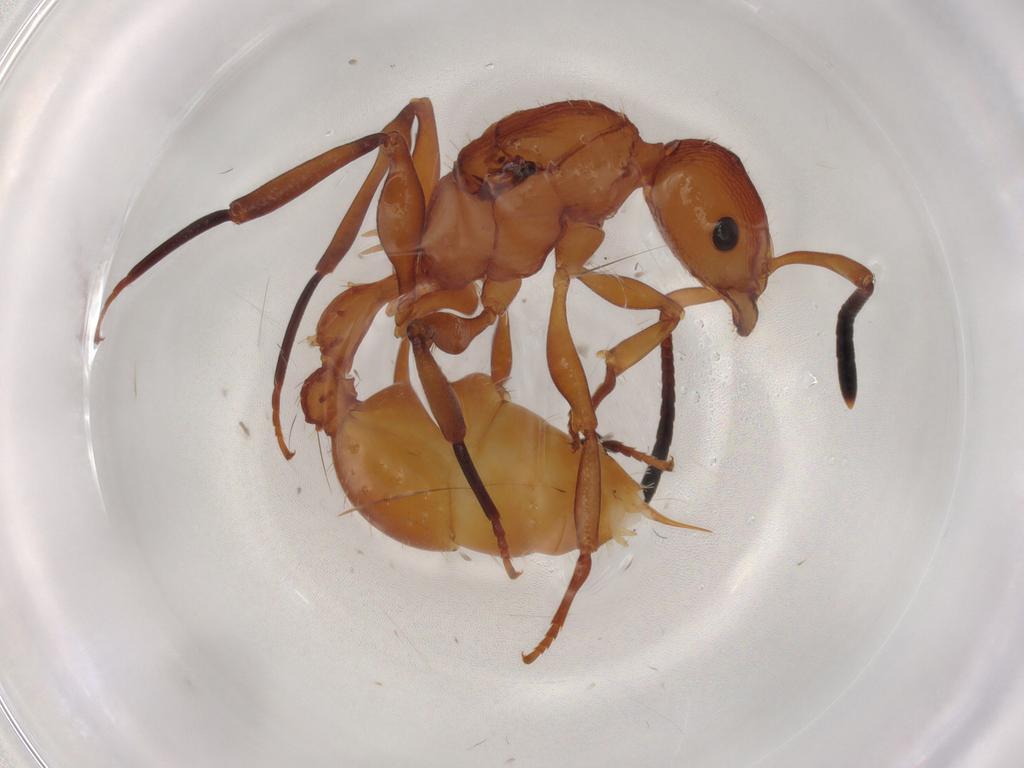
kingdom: Animalia
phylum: Arthropoda
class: Insecta
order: Hymenoptera
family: Formicidae
